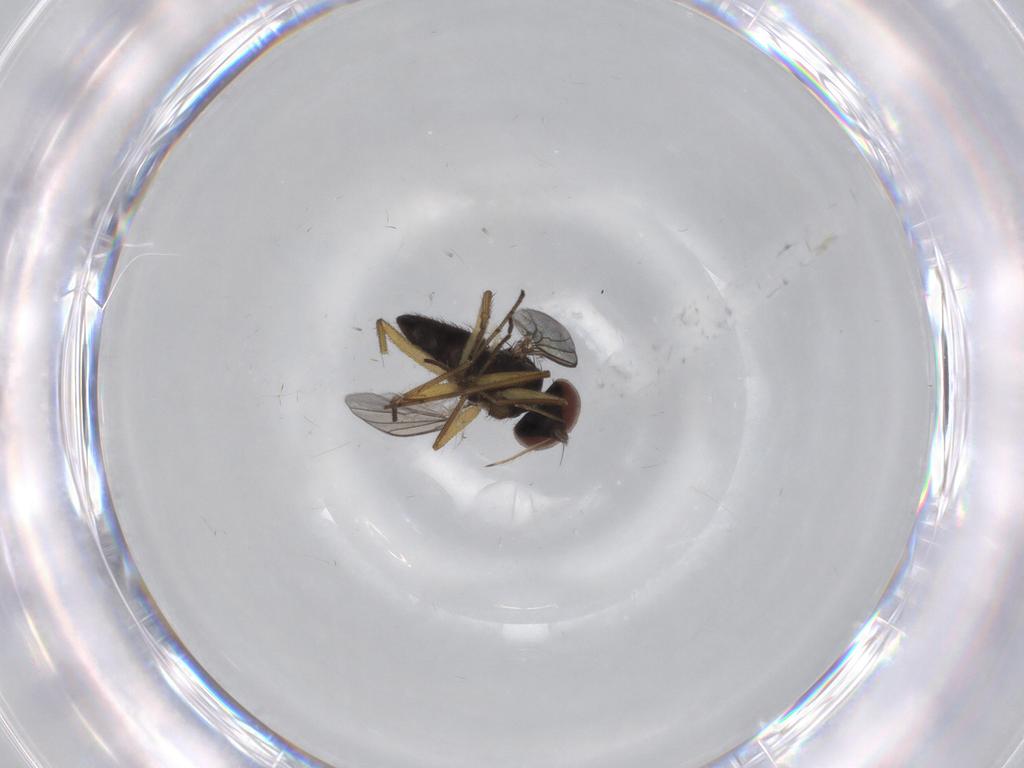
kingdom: Animalia
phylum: Arthropoda
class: Insecta
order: Diptera
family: Dolichopodidae
